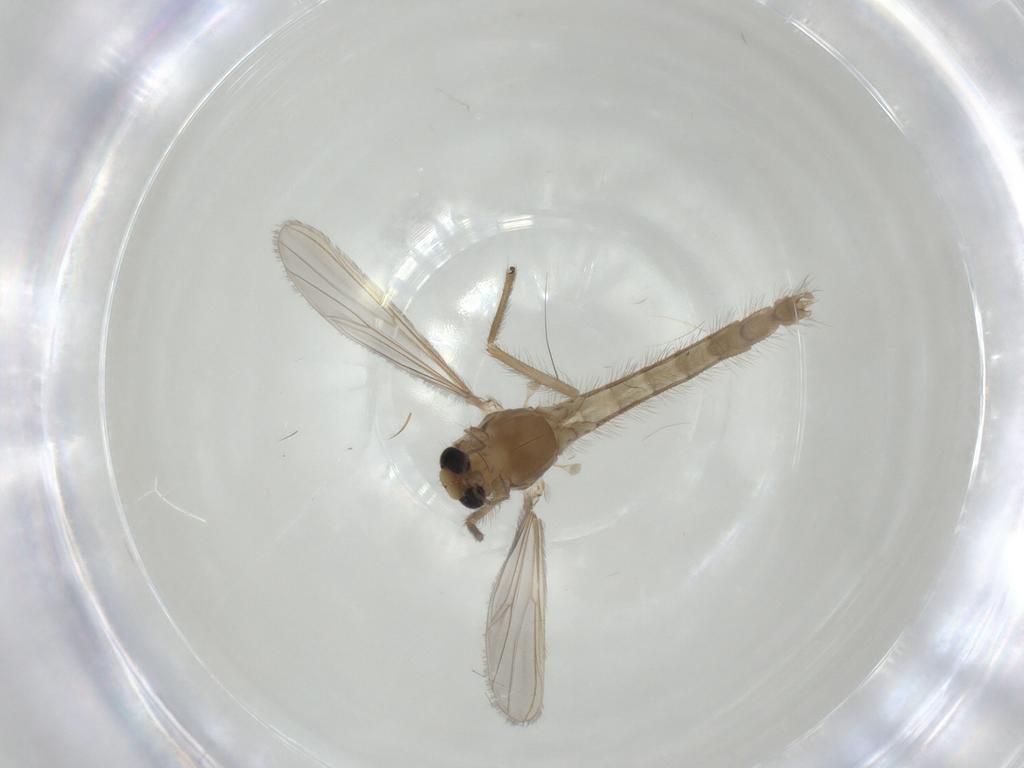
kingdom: Animalia
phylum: Arthropoda
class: Insecta
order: Diptera
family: Chironomidae
